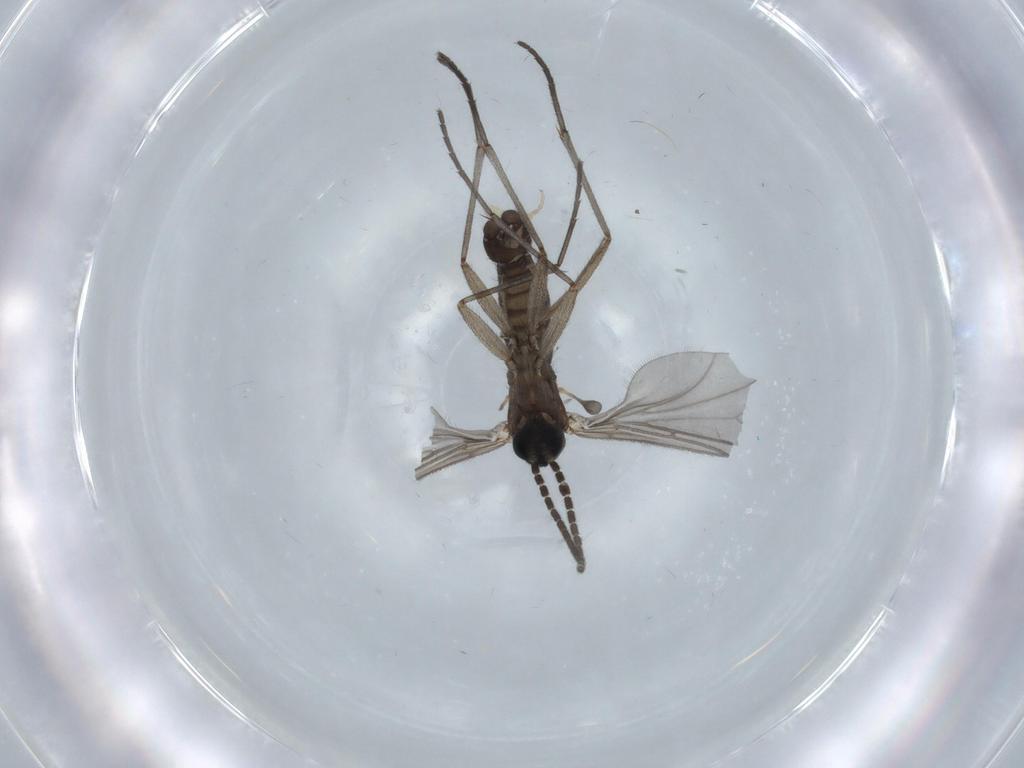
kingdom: Animalia
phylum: Arthropoda
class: Insecta
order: Diptera
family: Sciaridae
